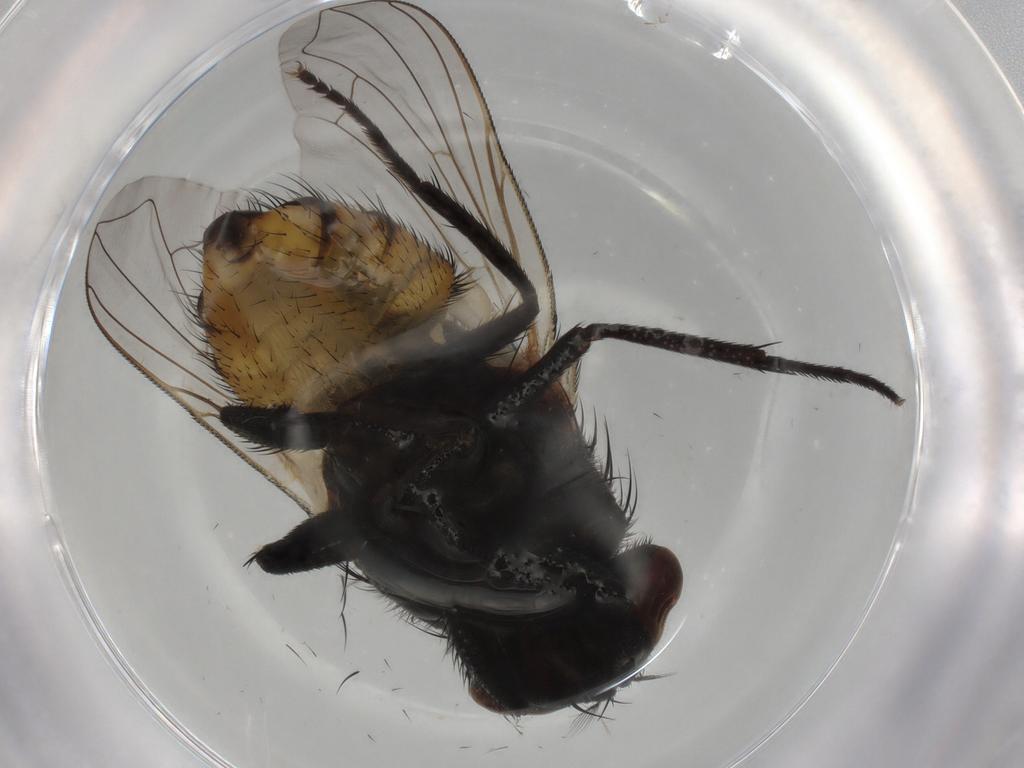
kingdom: Animalia
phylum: Arthropoda
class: Insecta
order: Diptera
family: Muscidae
